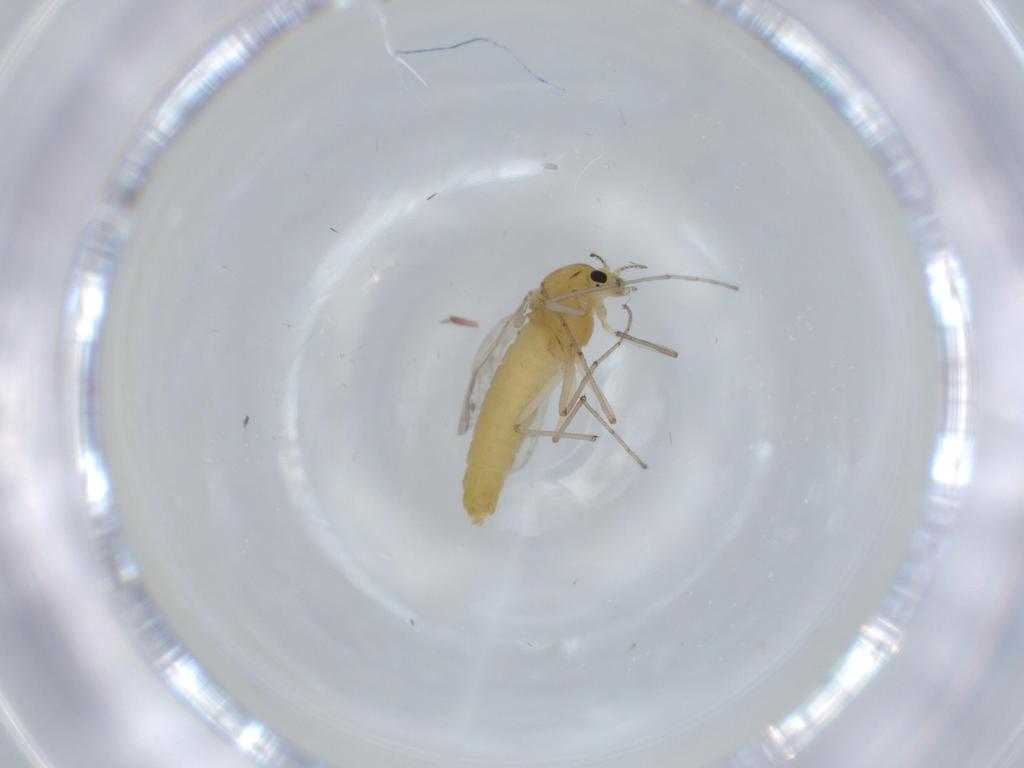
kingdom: Animalia
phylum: Arthropoda
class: Insecta
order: Diptera
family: Chironomidae
